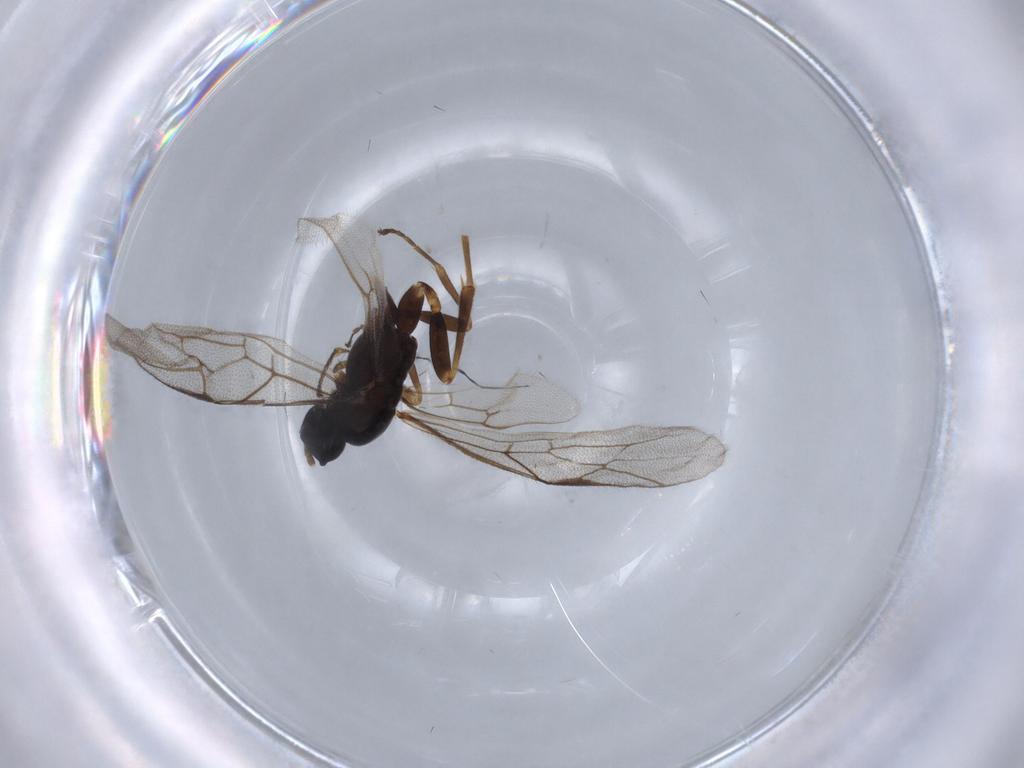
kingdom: Animalia
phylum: Arthropoda
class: Insecta
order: Hymenoptera
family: Ichneumonidae
